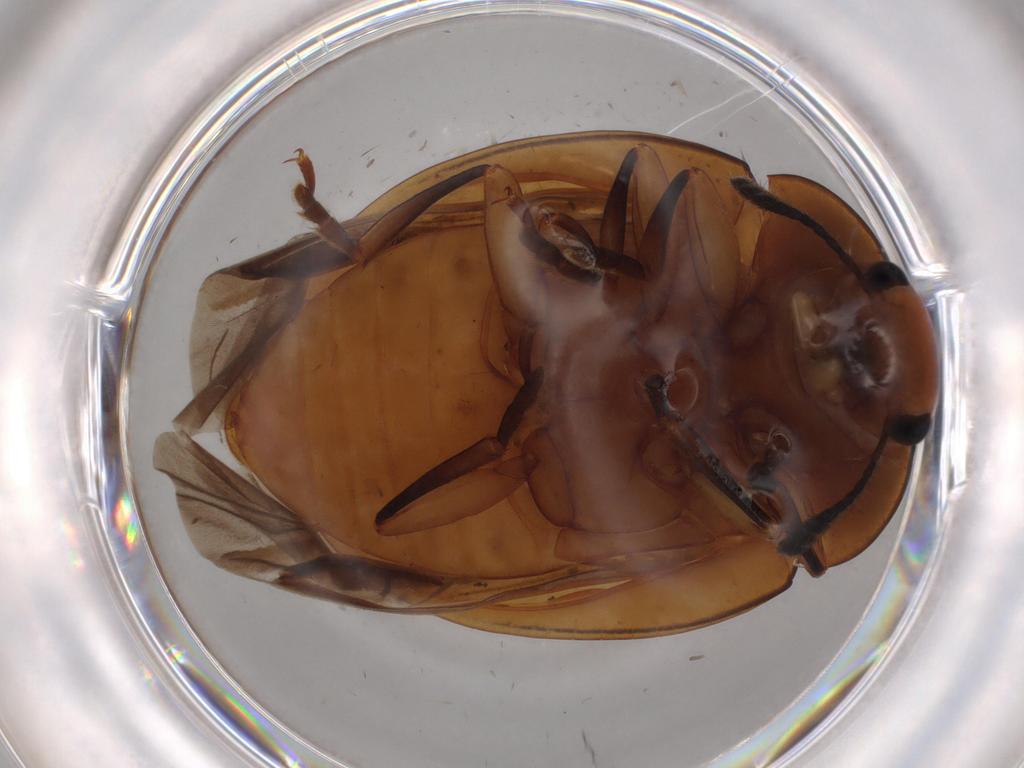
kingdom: Animalia
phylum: Arthropoda
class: Insecta
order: Coleoptera
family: Erotylidae
